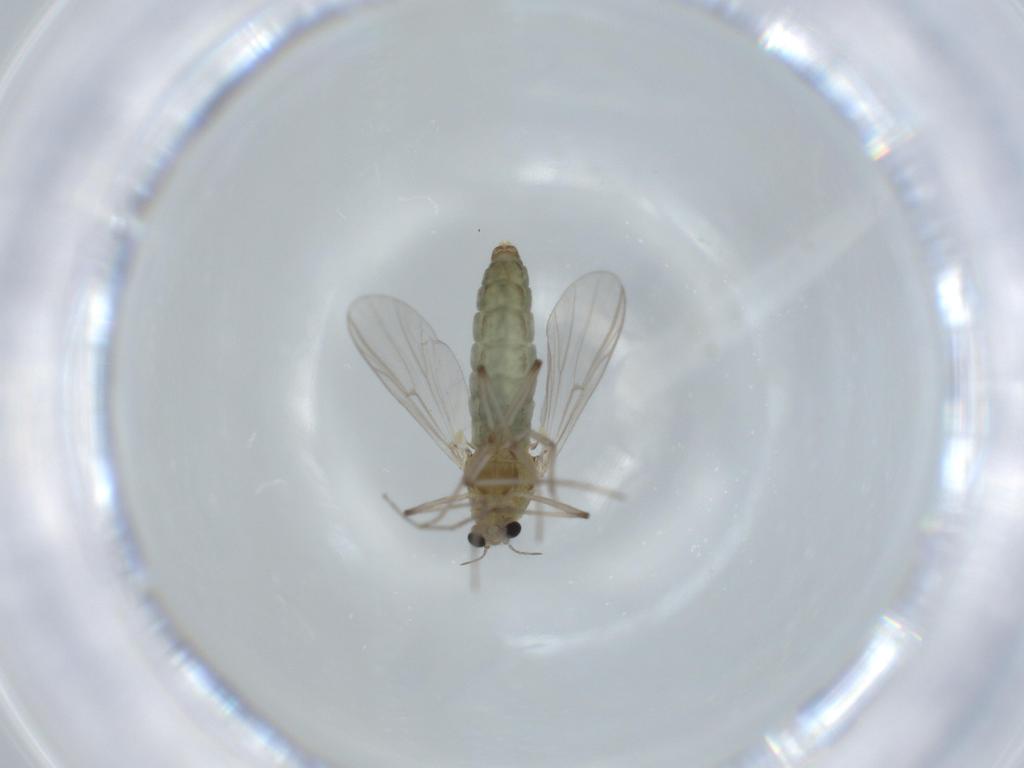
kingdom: Animalia
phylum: Arthropoda
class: Insecta
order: Diptera
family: Chironomidae
